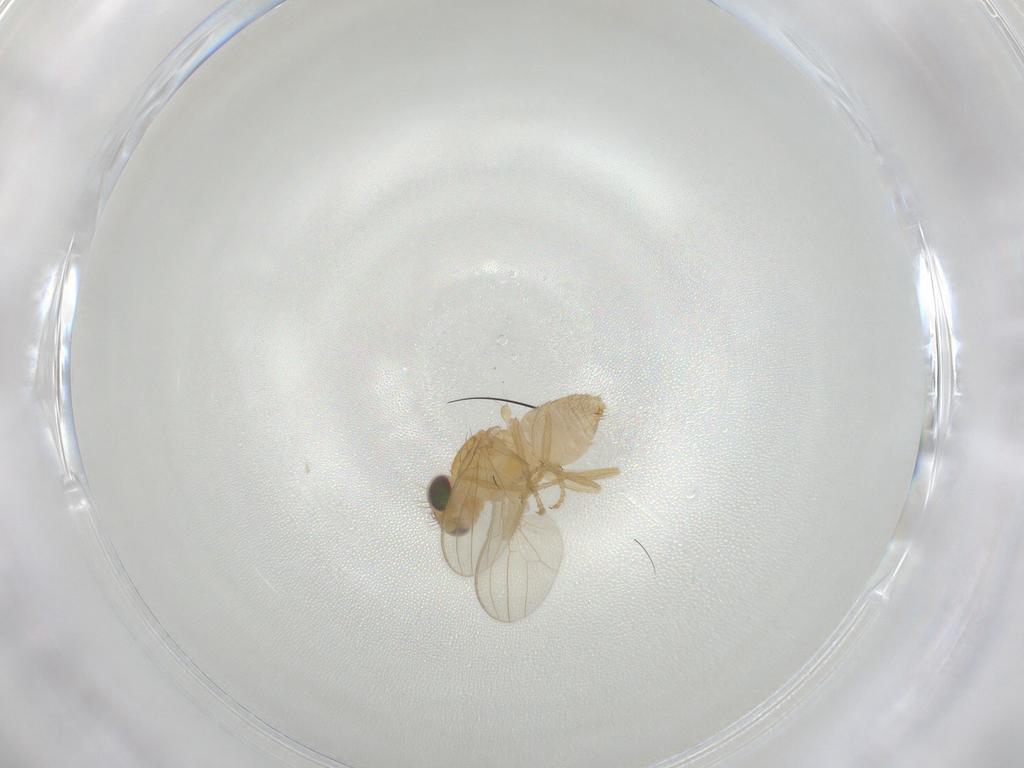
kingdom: Animalia
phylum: Arthropoda
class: Insecta
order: Diptera
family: Chyromyidae
